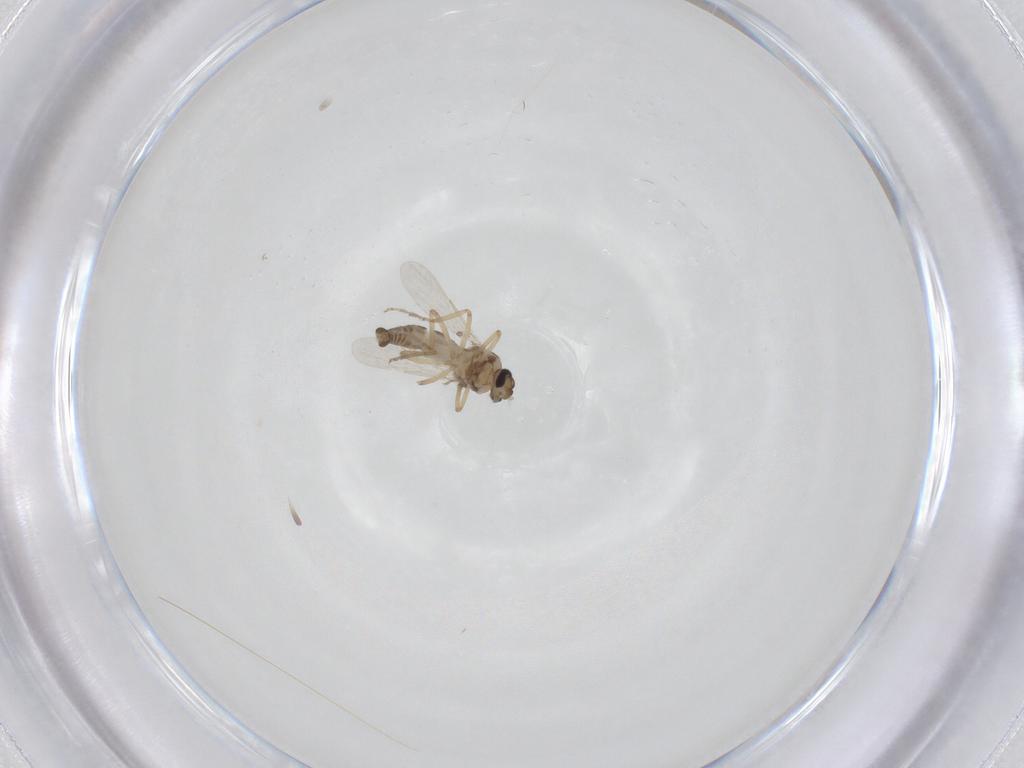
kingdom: Animalia
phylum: Arthropoda
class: Insecta
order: Diptera
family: Ceratopogonidae
